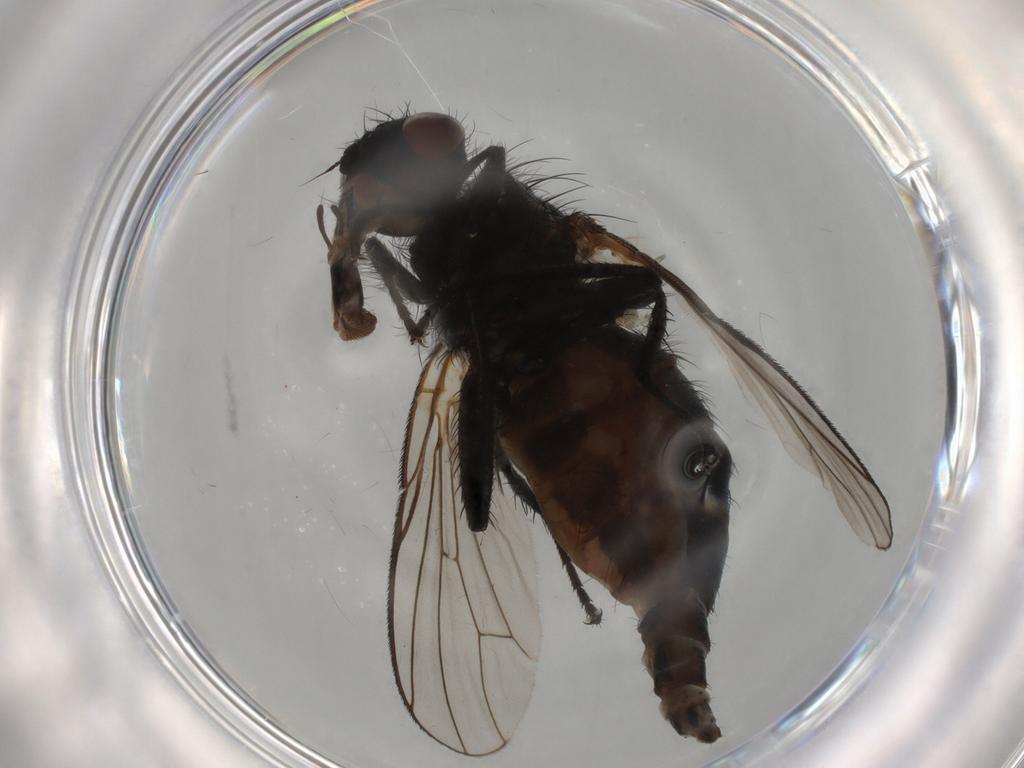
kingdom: Animalia
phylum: Arthropoda
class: Insecta
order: Diptera
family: Anthomyiidae
